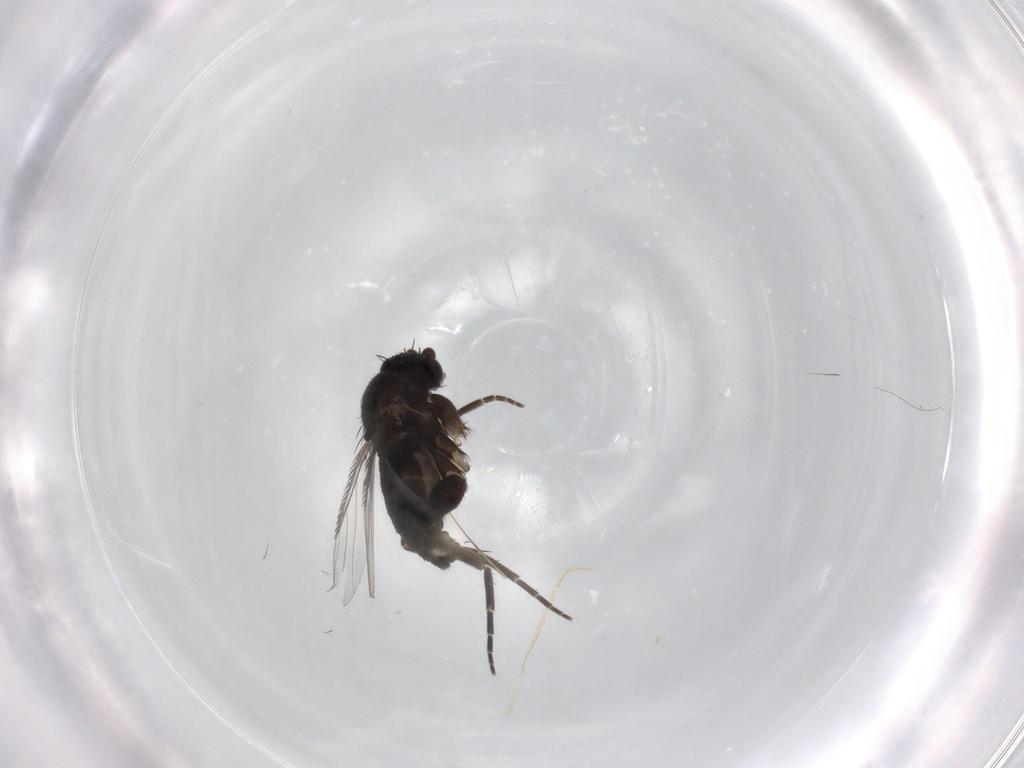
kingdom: Animalia
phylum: Arthropoda
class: Insecta
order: Diptera
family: Phoridae
